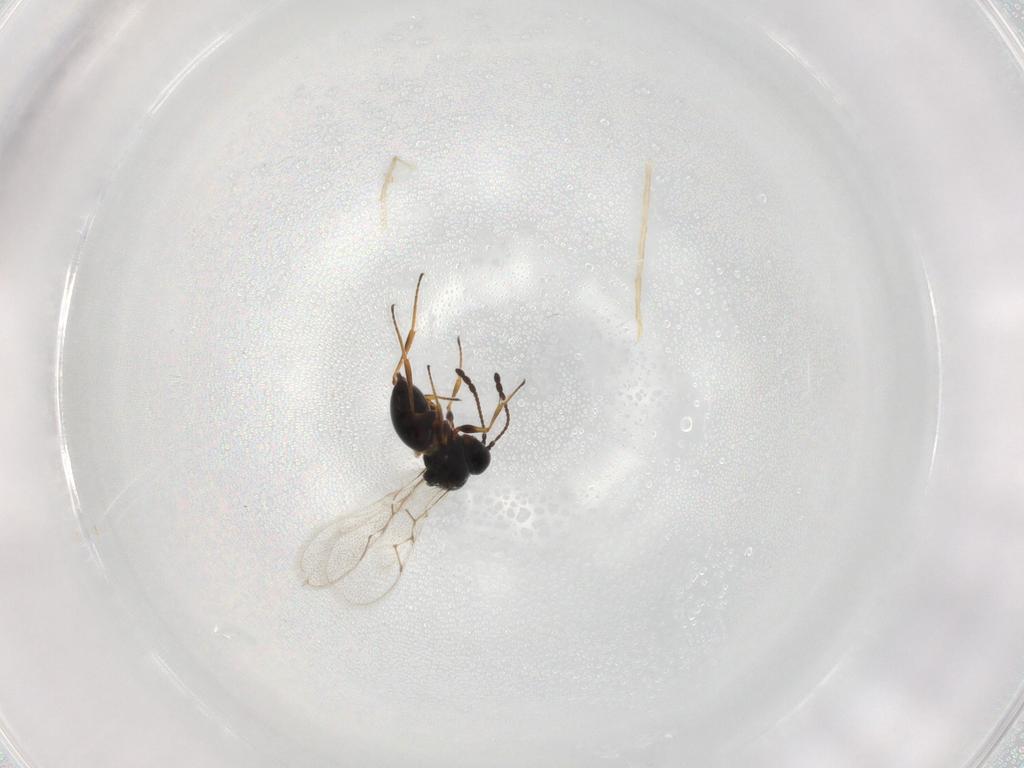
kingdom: Animalia
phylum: Arthropoda
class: Insecta
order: Hymenoptera
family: Figitidae
